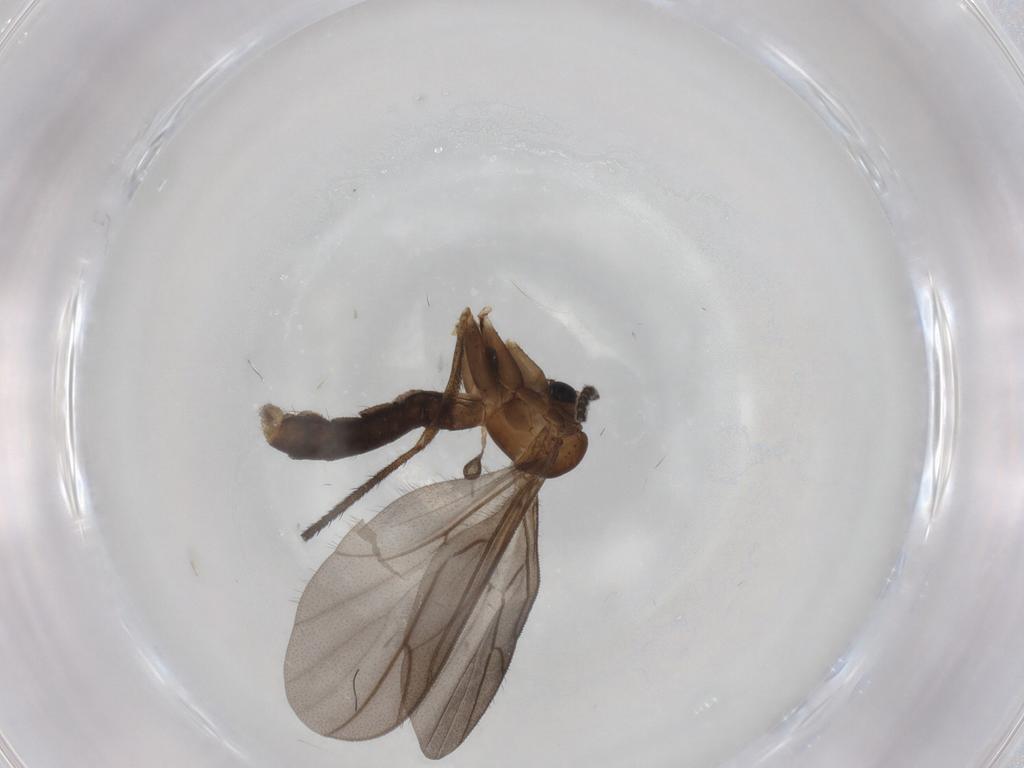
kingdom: Animalia
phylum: Arthropoda
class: Insecta
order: Diptera
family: Ditomyiidae
